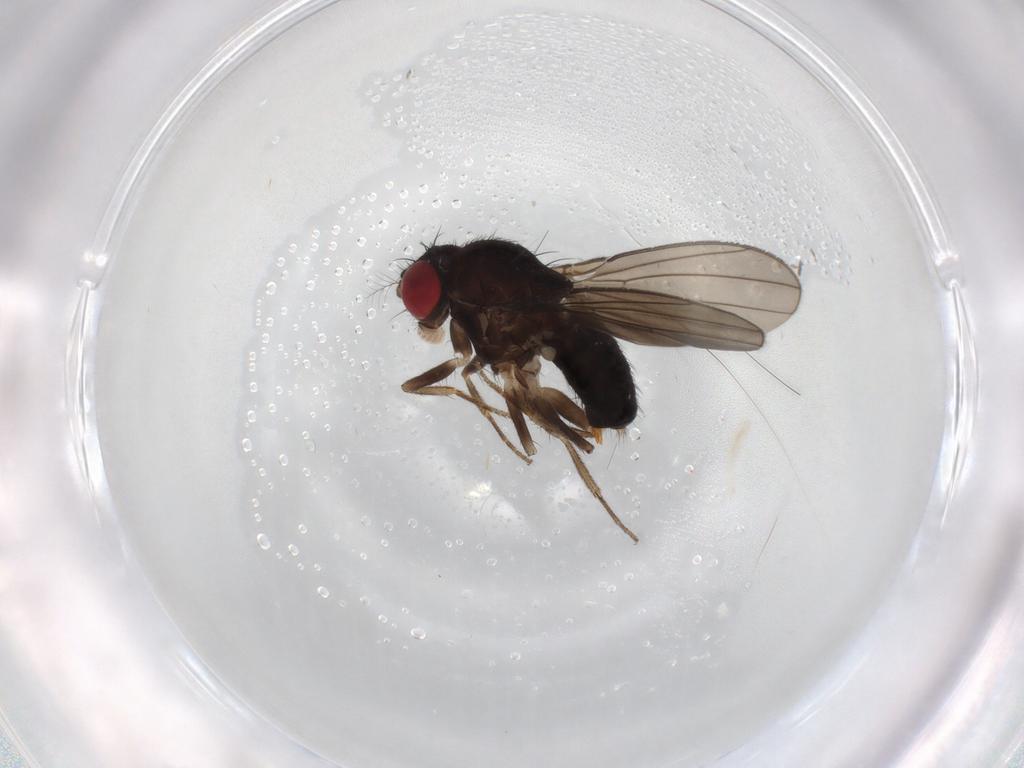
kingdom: Animalia
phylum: Arthropoda
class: Insecta
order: Diptera
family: Drosophilidae
